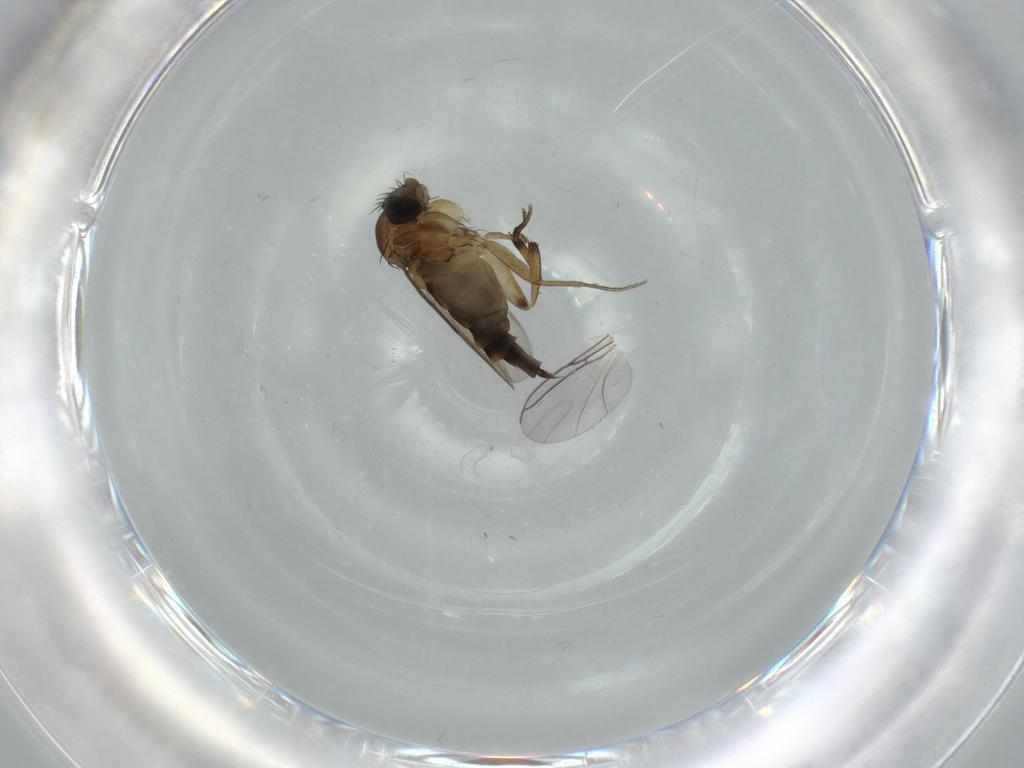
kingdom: Animalia
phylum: Arthropoda
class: Insecta
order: Diptera
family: Phoridae
